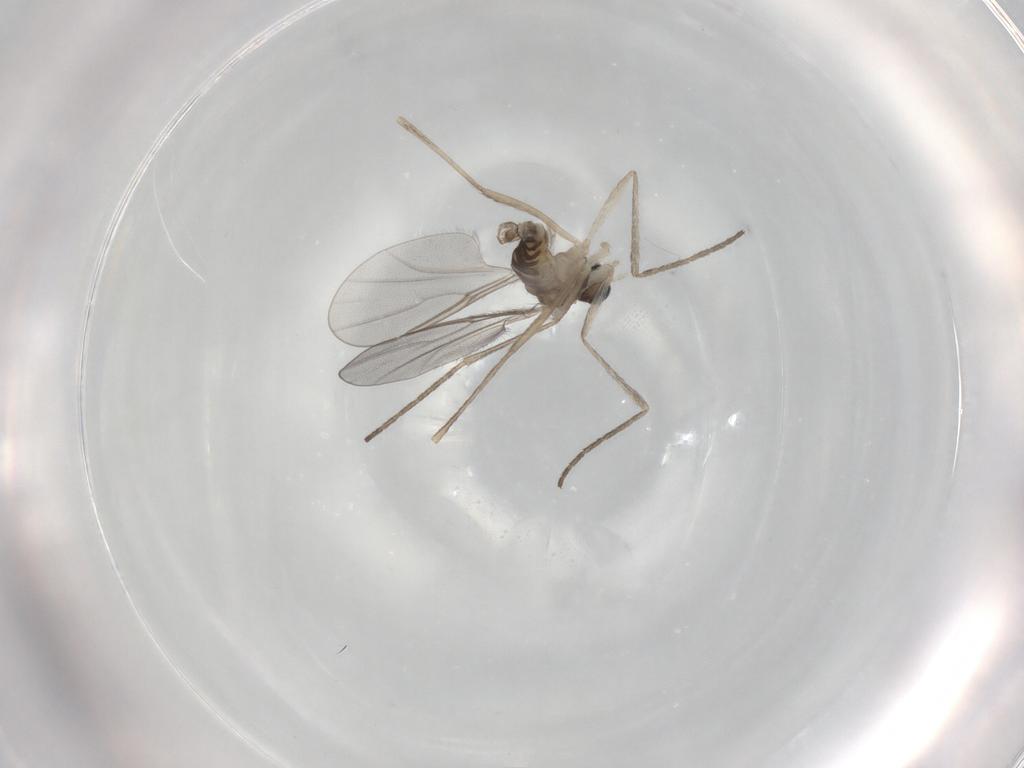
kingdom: Animalia
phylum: Arthropoda
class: Insecta
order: Diptera
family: Cecidomyiidae
